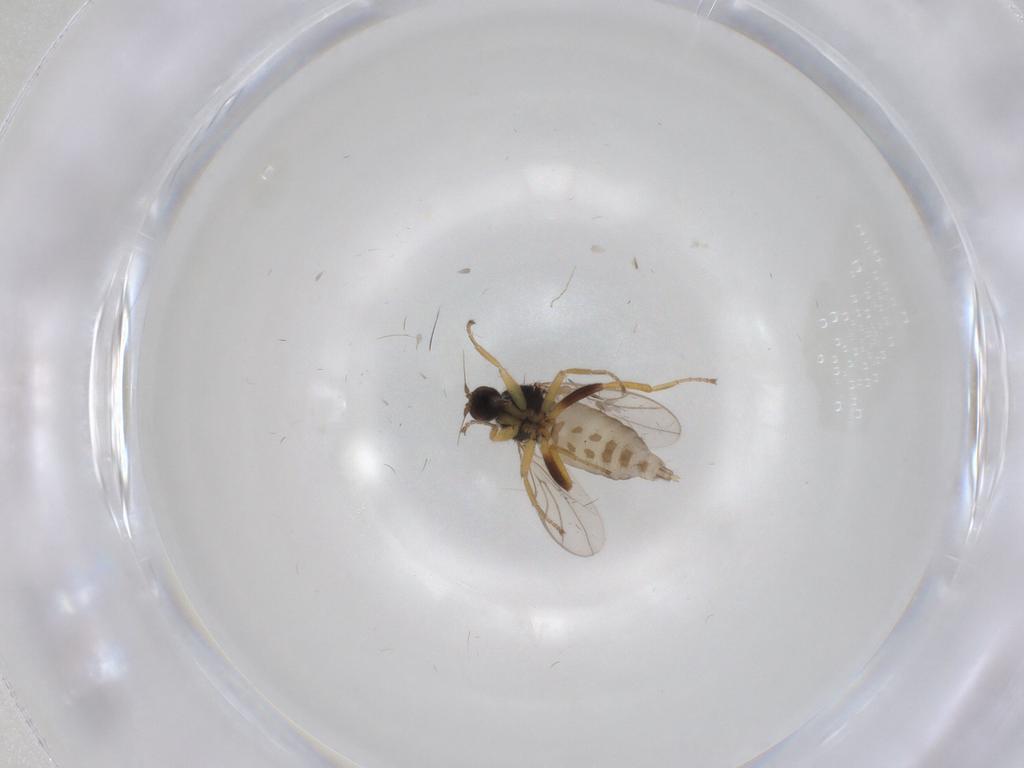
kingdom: Animalia
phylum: Arthropoda
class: Insecta
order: Diptera
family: Hybotidae
